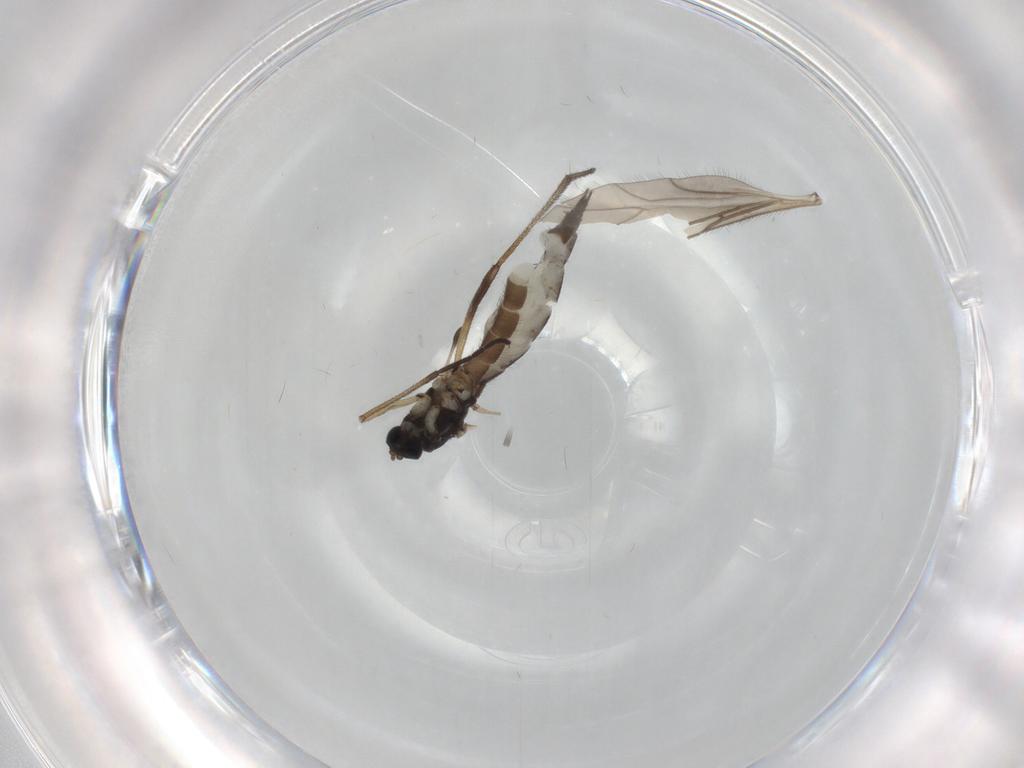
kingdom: Animalia
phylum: Arthropoda
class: Insecta
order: Diptera
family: Sciaridae
